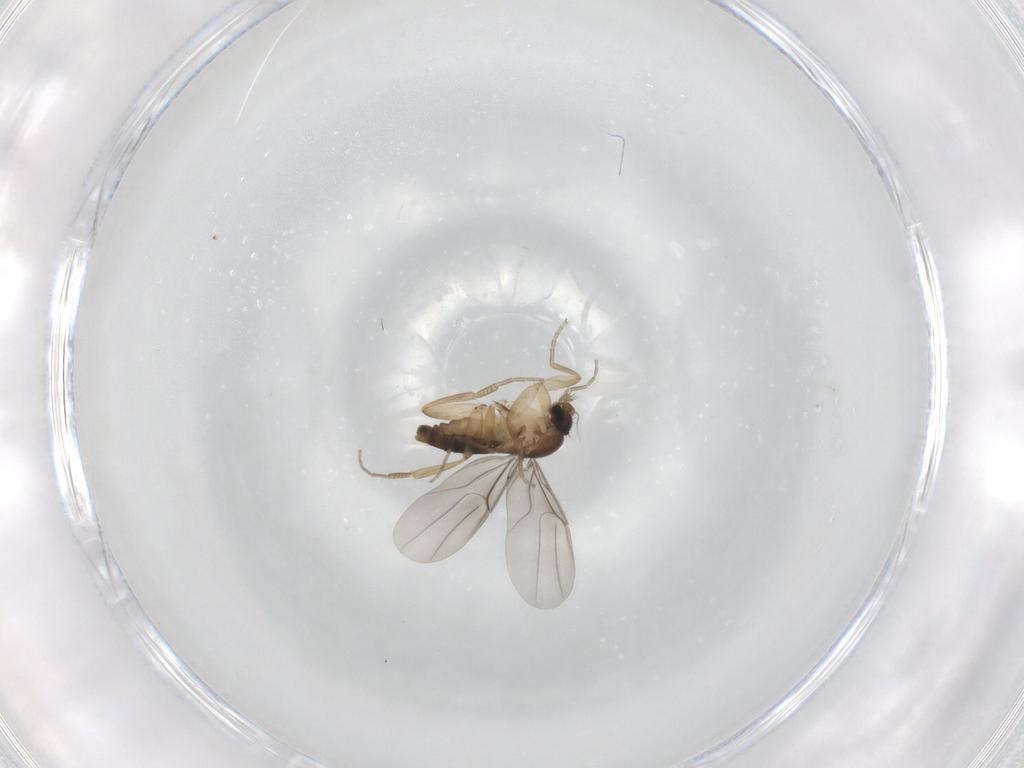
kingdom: Animalia
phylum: Arthropoda
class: Insecta
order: Diptera
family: Phoridae
